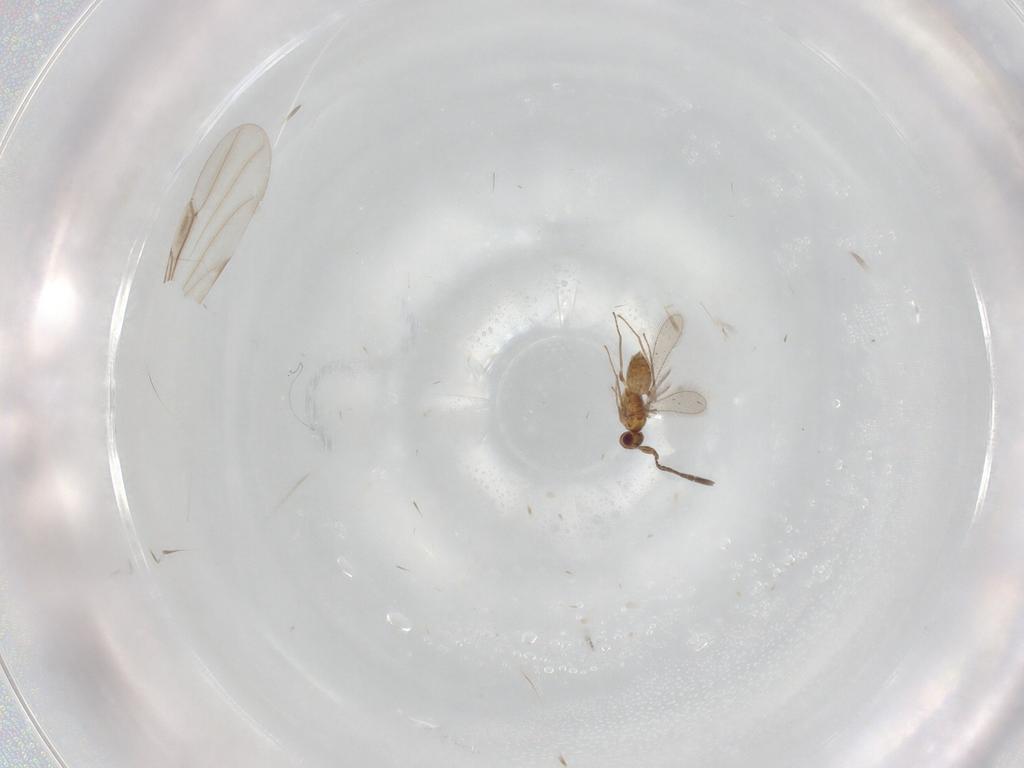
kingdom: Animalia
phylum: Arthropoda
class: Insecta
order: Hymenoptera
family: Mymaridae
